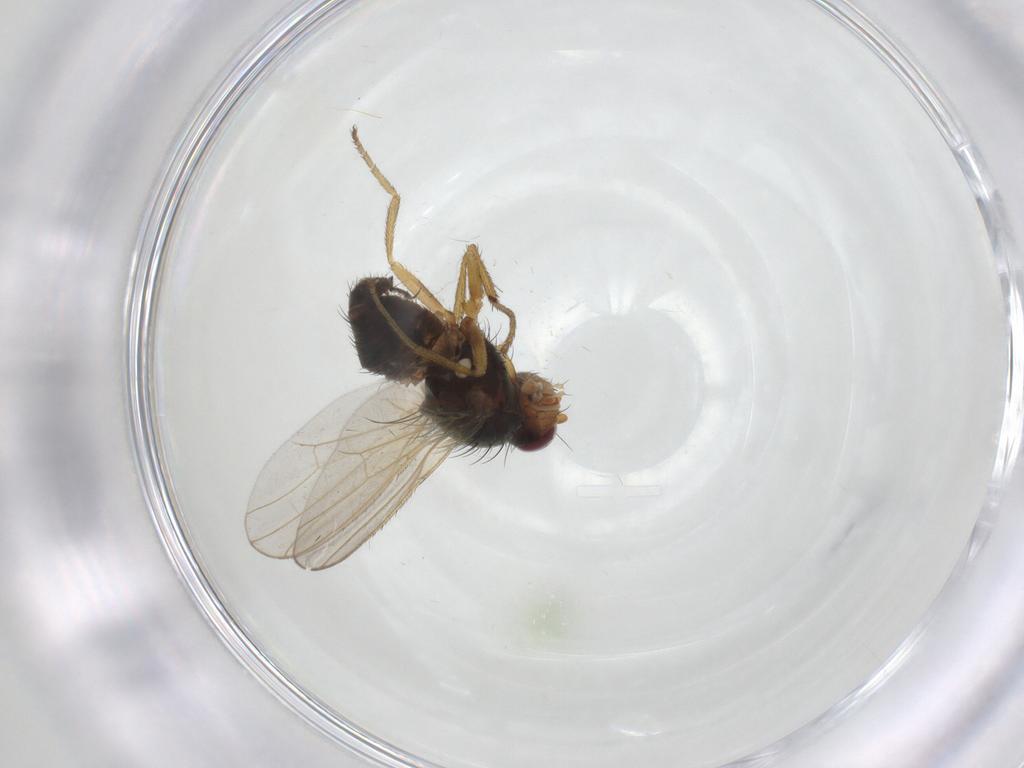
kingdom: Animalia
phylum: Arthropoda
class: Insecta
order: Diptera
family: Heleomyzidae
